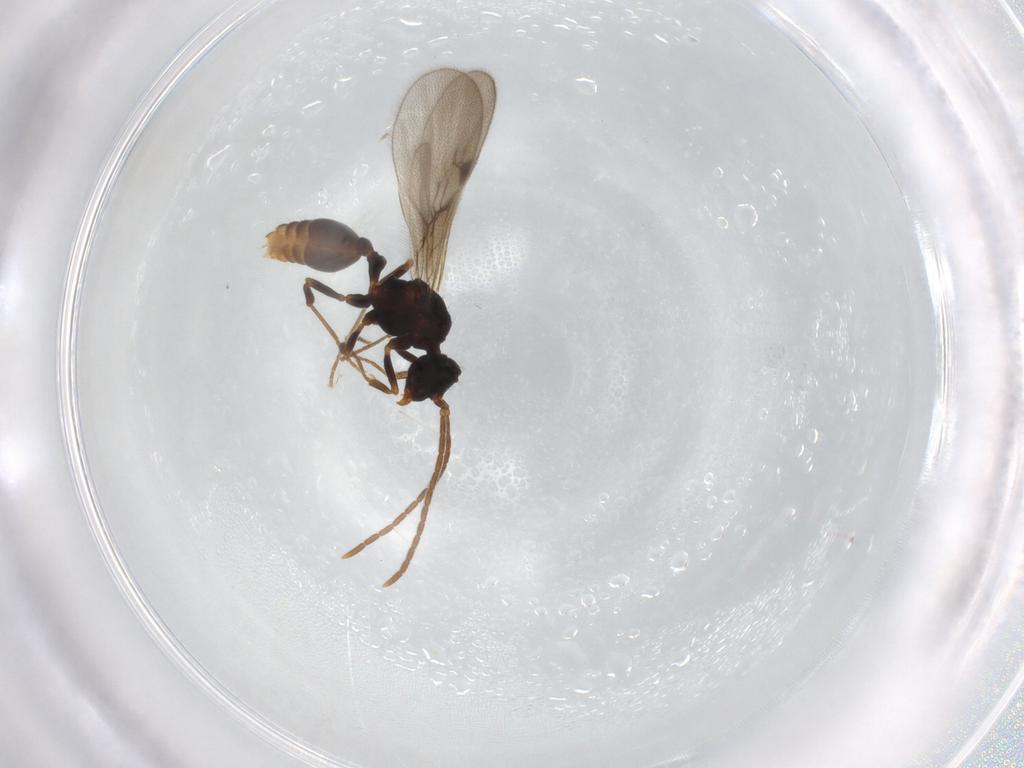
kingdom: Animalia
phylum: Arthropoda
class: Insecta
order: Hymenoptera
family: Formicidae
